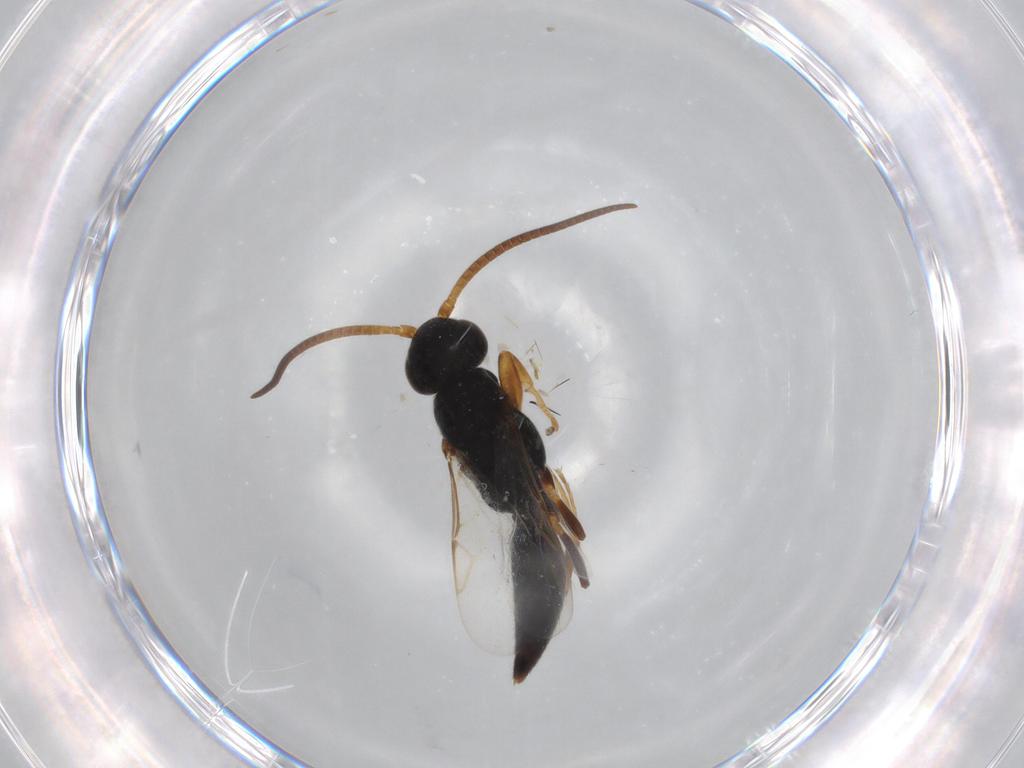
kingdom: Animalia
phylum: Arthropoda
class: Insecta
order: Hymenoptera
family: Sclerogibbidae
